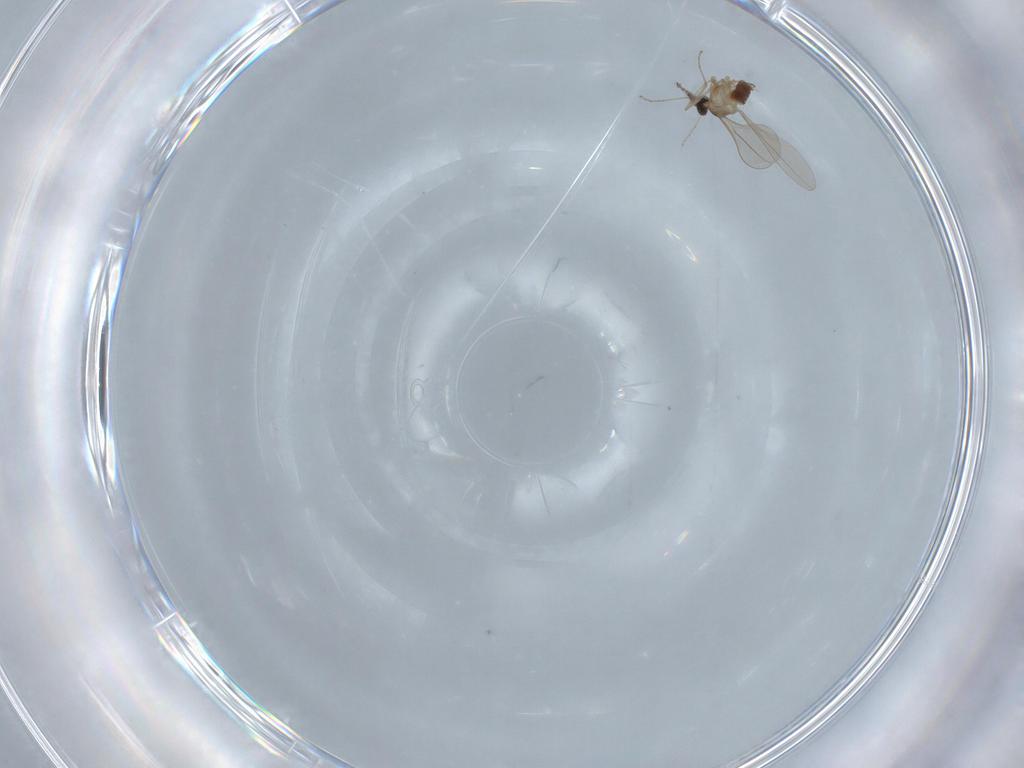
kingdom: Animalia
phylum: Arthropoda
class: Insecta
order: Diptera
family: Cecidomyiidae
